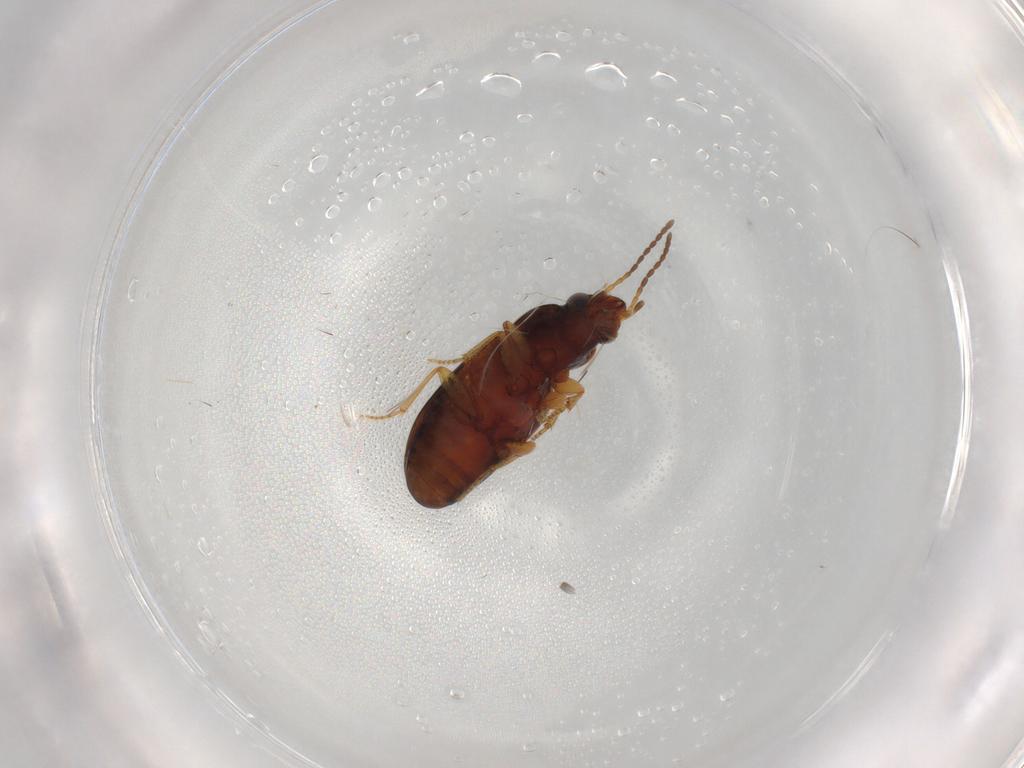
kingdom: Animalia
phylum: Arthropoda
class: Insecta
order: Coleoptera
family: Carabidae
